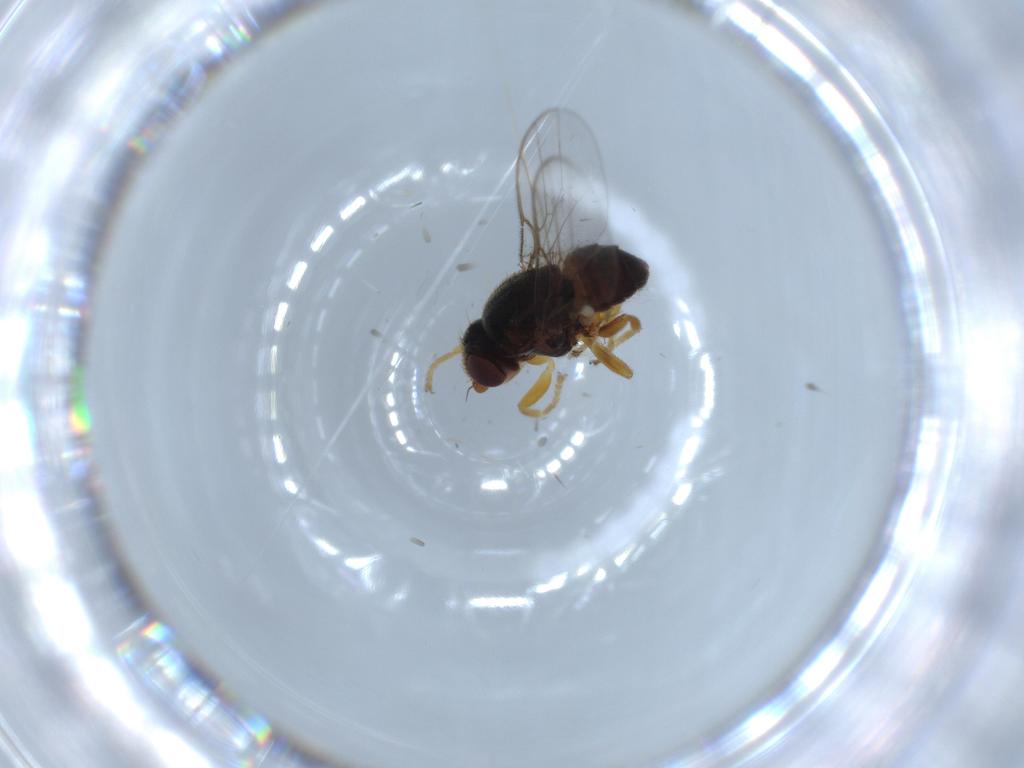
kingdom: Animalia
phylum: Arthropoda
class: Insecta
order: Diptera
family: Ceratopogonidae
